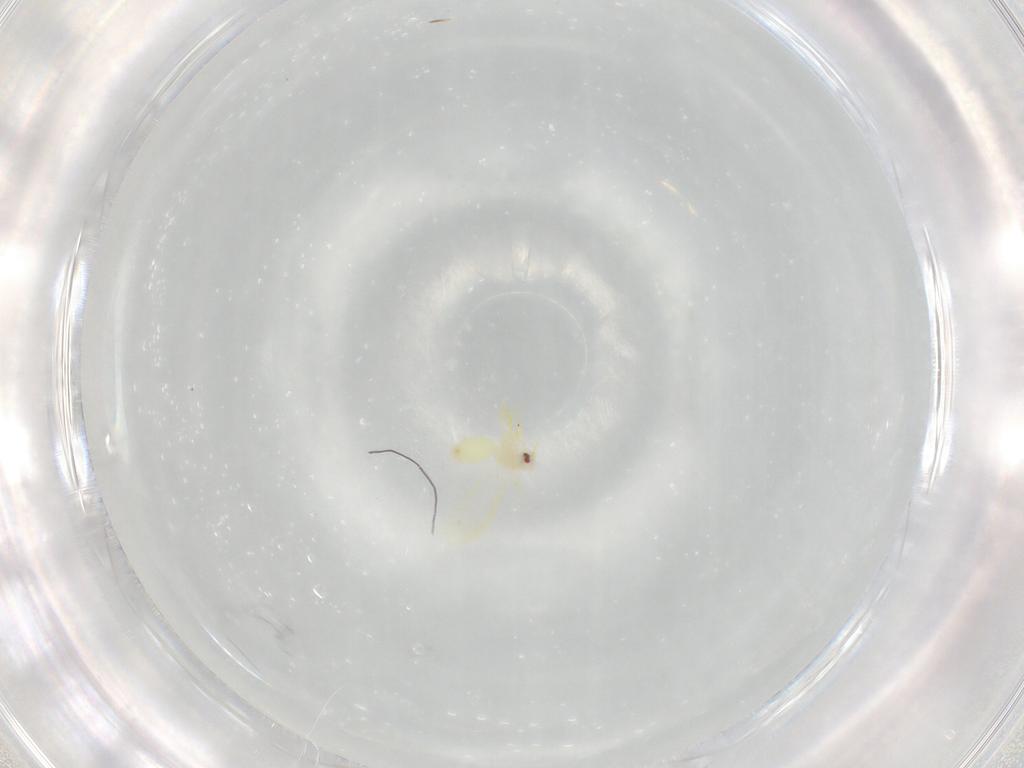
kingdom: Animalia
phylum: Arthropoda
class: Insecta
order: Hemiptera
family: Aleyrodidae
